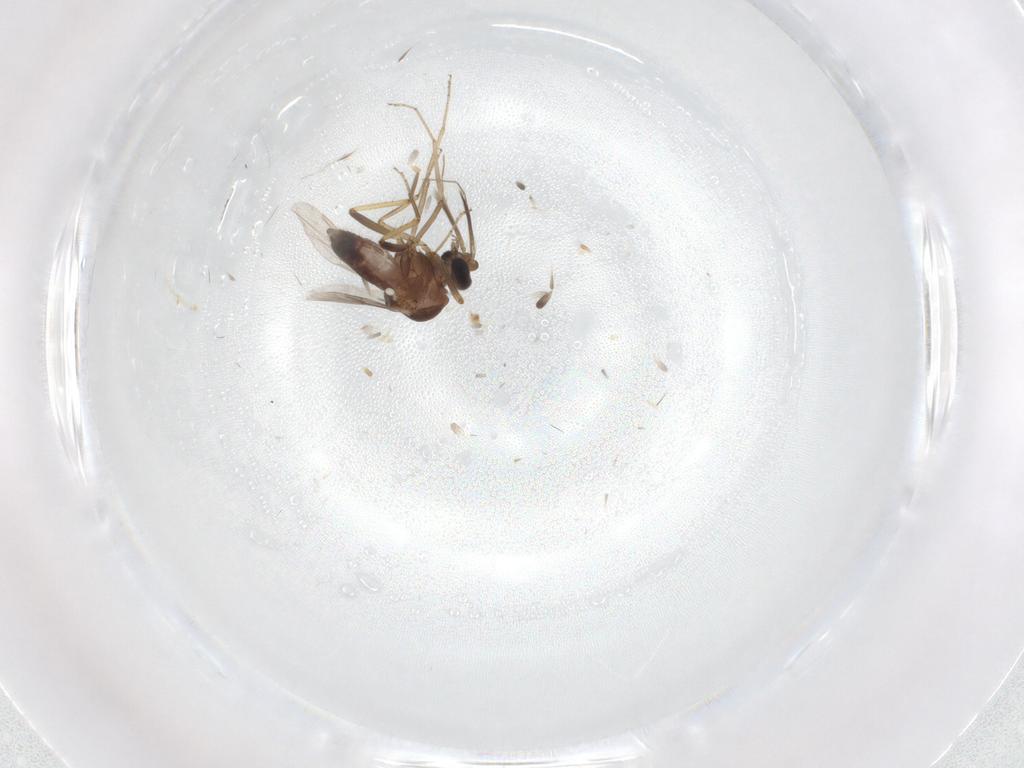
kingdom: Animalia
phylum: Arthropoda
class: Insecta
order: Diptera
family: Ceratopogonidae
